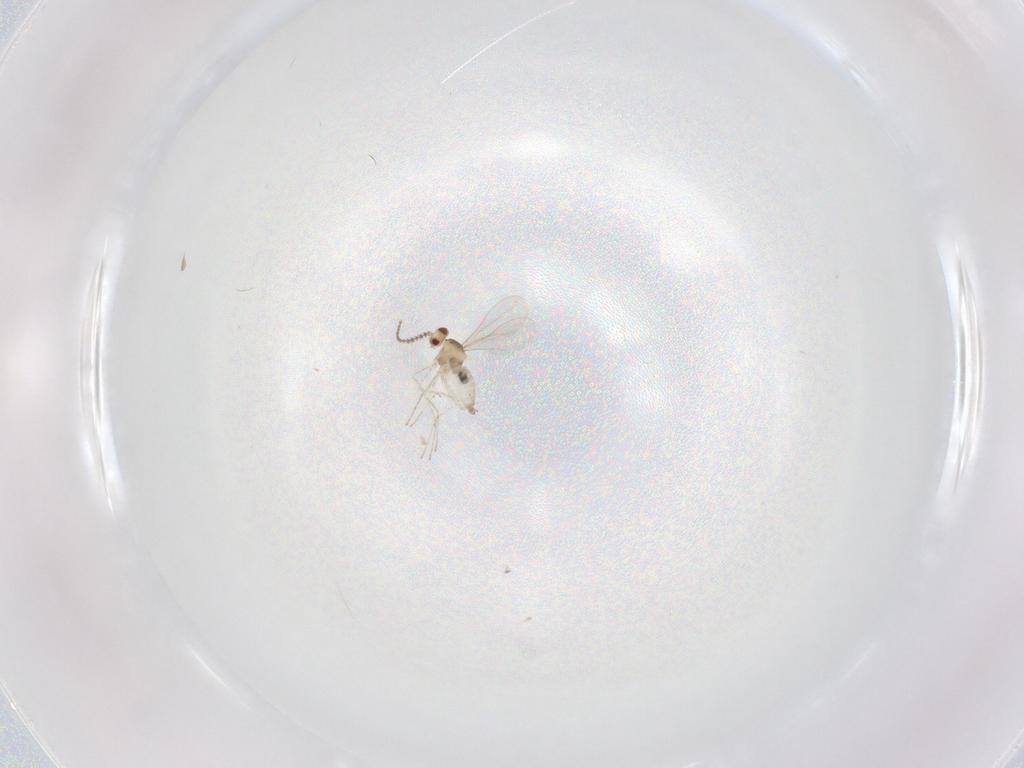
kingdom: Animalia
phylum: Arthropoda
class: Insecta
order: Diptera
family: Cecidomyiidae
